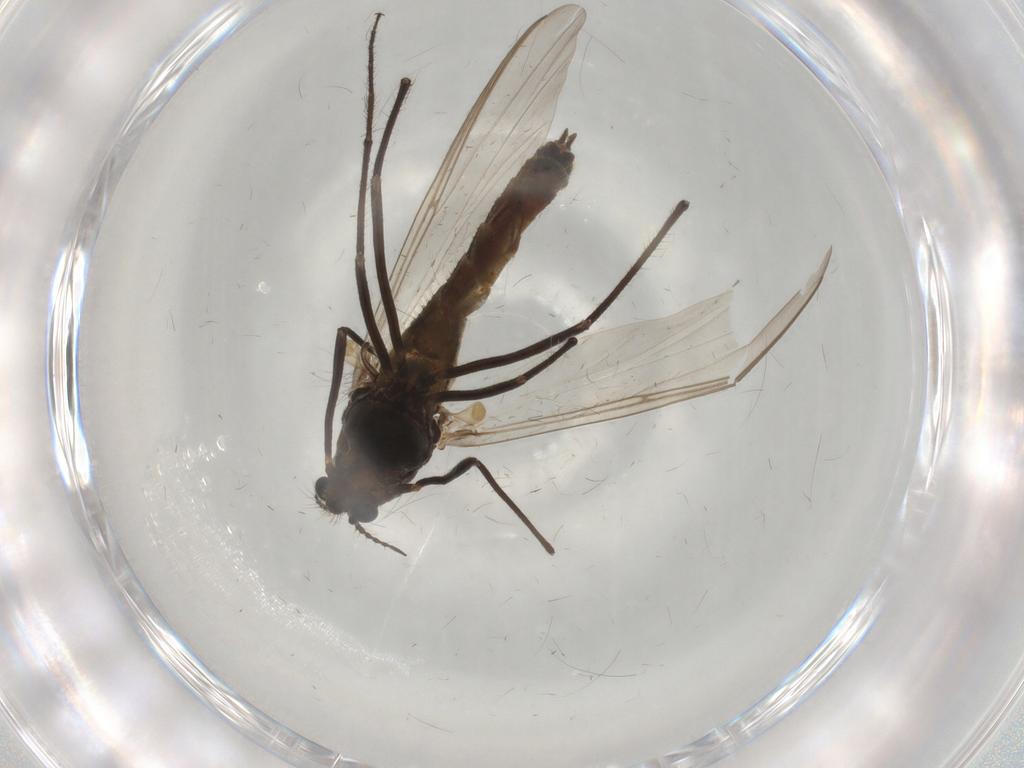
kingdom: Animalia
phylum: Arthropoda
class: Insecta
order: Diptera
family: Chironomidae
